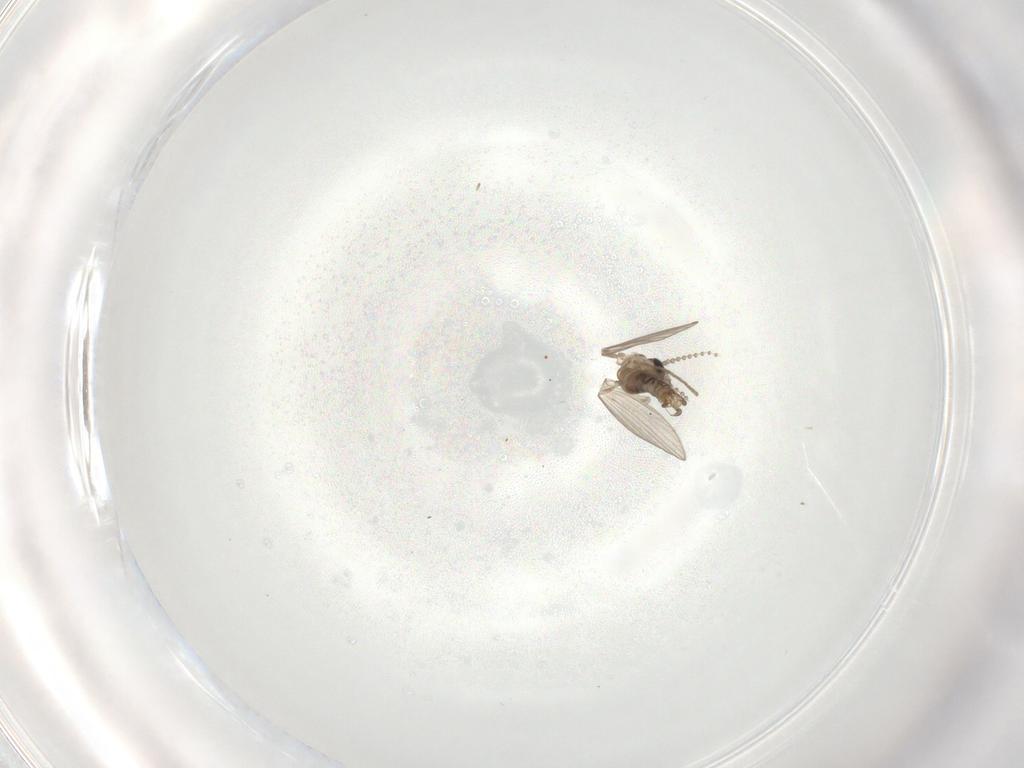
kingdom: Animalia
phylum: Arthropoda
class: Insecta
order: Diptera
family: Psychodidae
